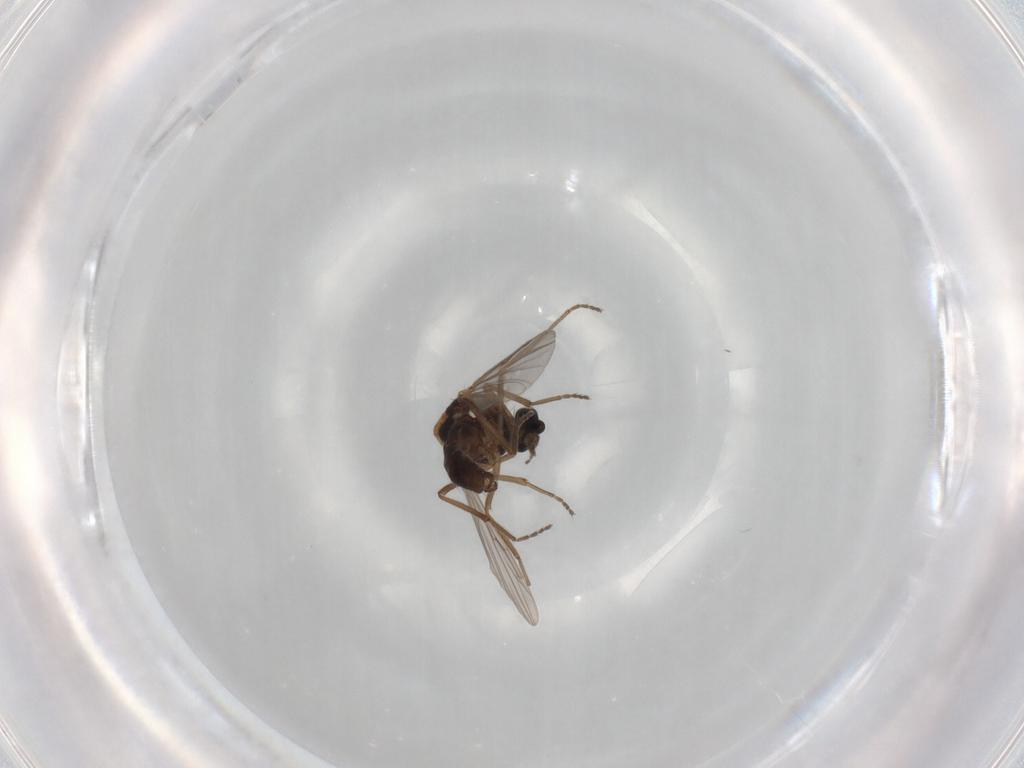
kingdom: Animalia
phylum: Arthropoda
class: Insecta
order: Diptera
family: Ceratopogonidae
